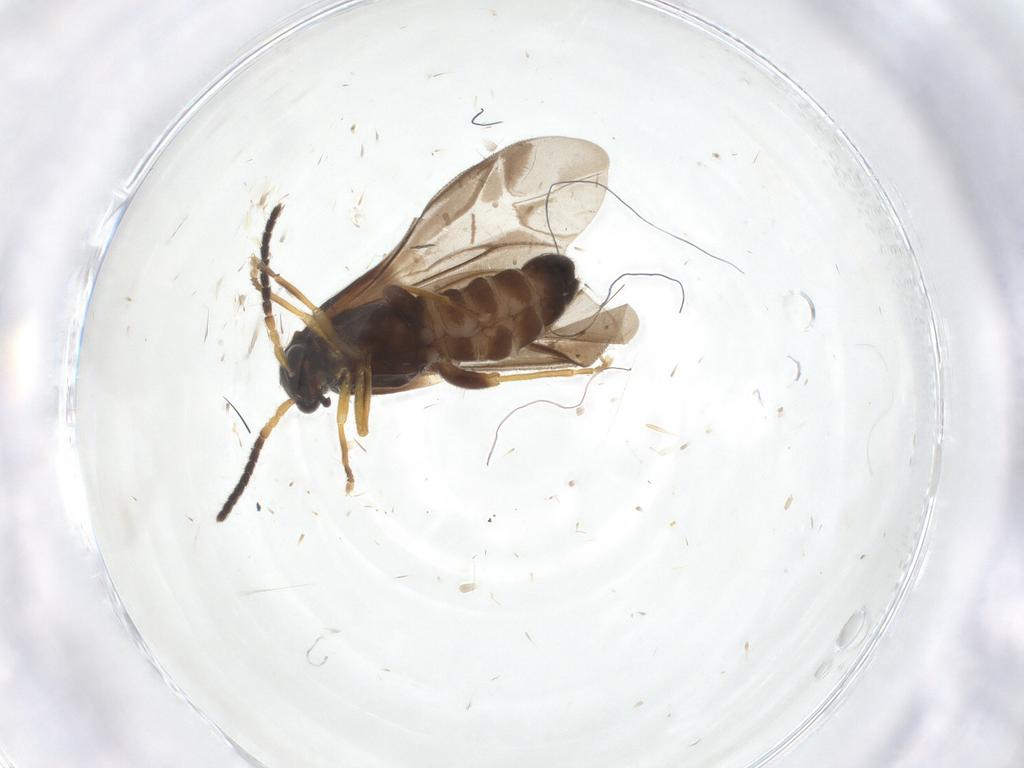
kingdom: Animalia
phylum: Arthropoda
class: Insecta
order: Coleoptera
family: Cantharidae
